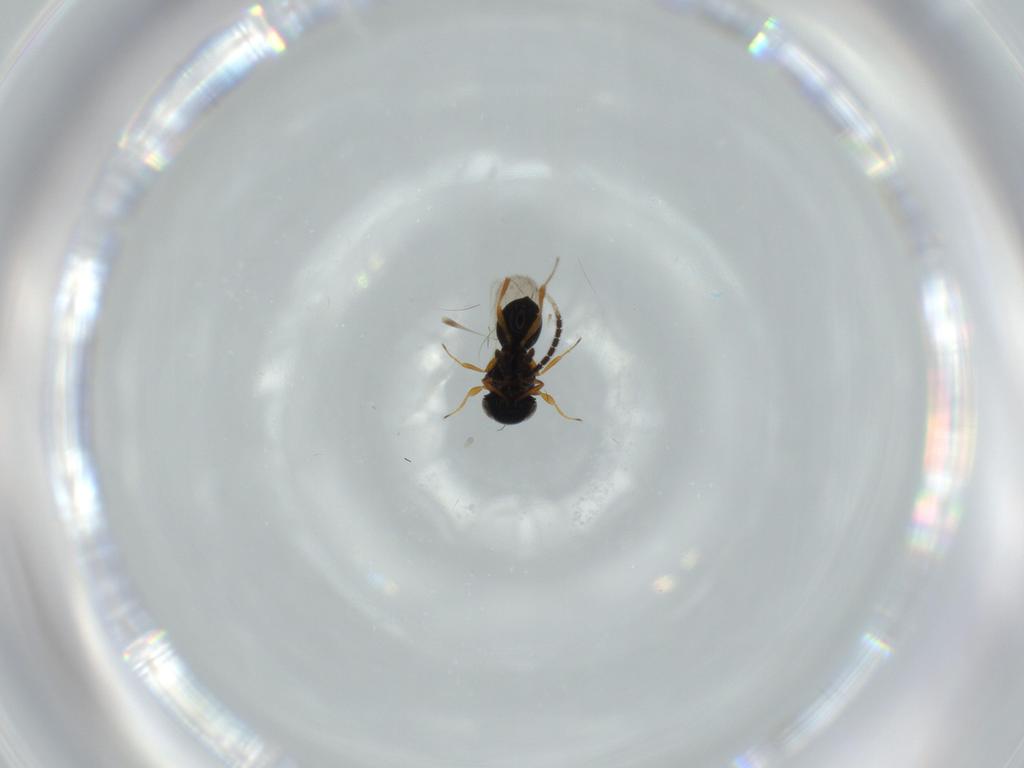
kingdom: Animalia
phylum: Arthropoda
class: Insecta
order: Hymenoptera
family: Scelionidae
